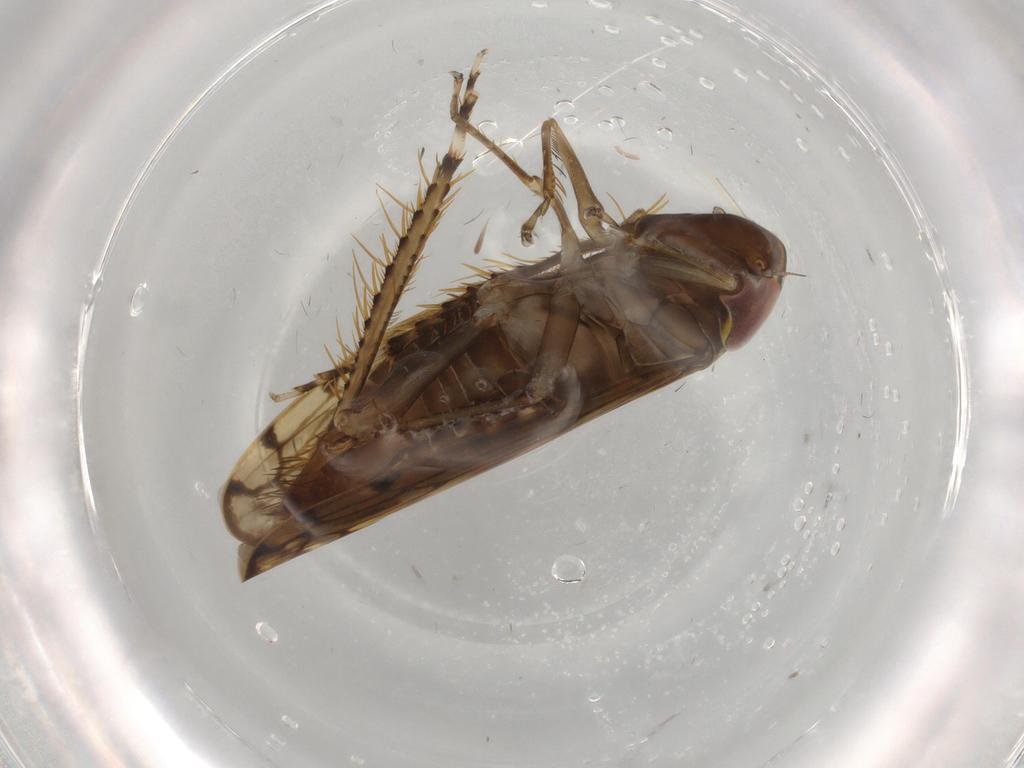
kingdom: Animalia
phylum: Arthropoda
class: Insecta
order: Hemiptera
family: Cicadellidae
